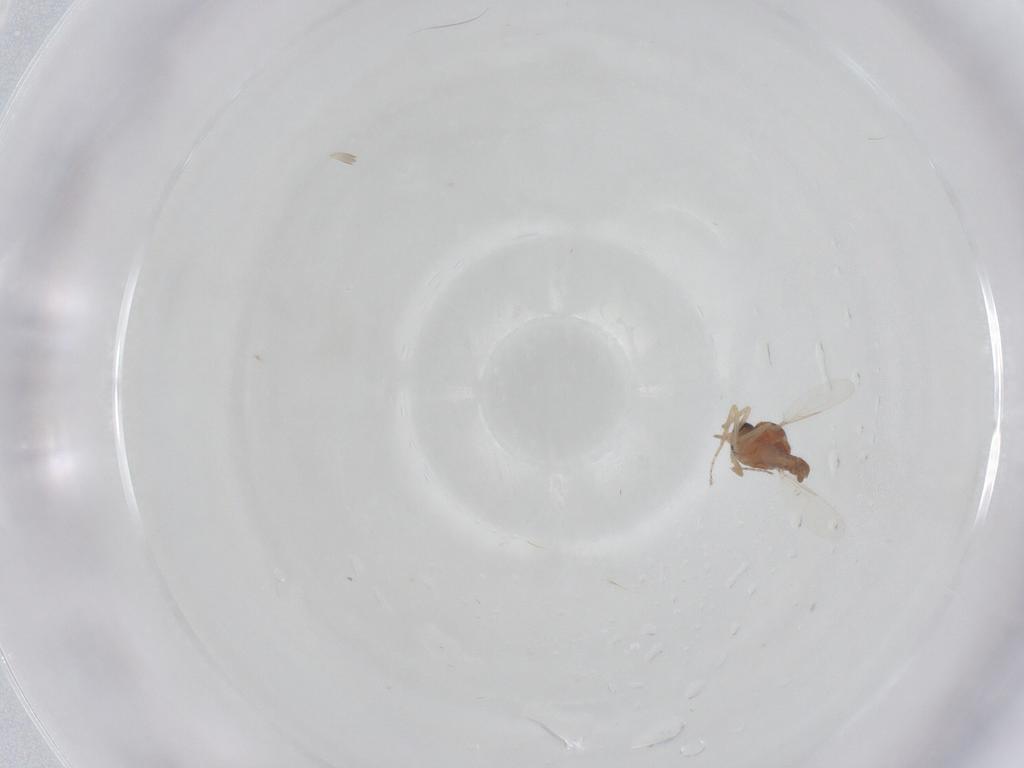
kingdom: Animalia
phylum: Arthropoda
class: Insecta
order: Diptera
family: Ceratopogonidae
